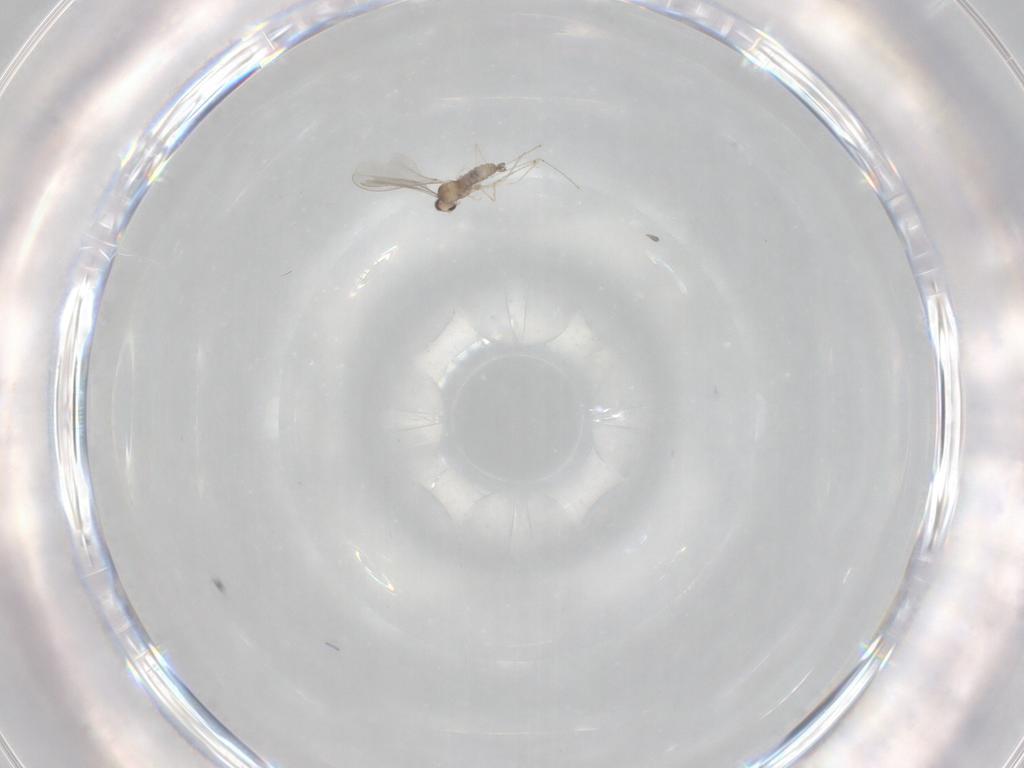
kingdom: Animalia
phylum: Arthropoda
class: Insecta
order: Diptera
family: Cecidomyiidae
